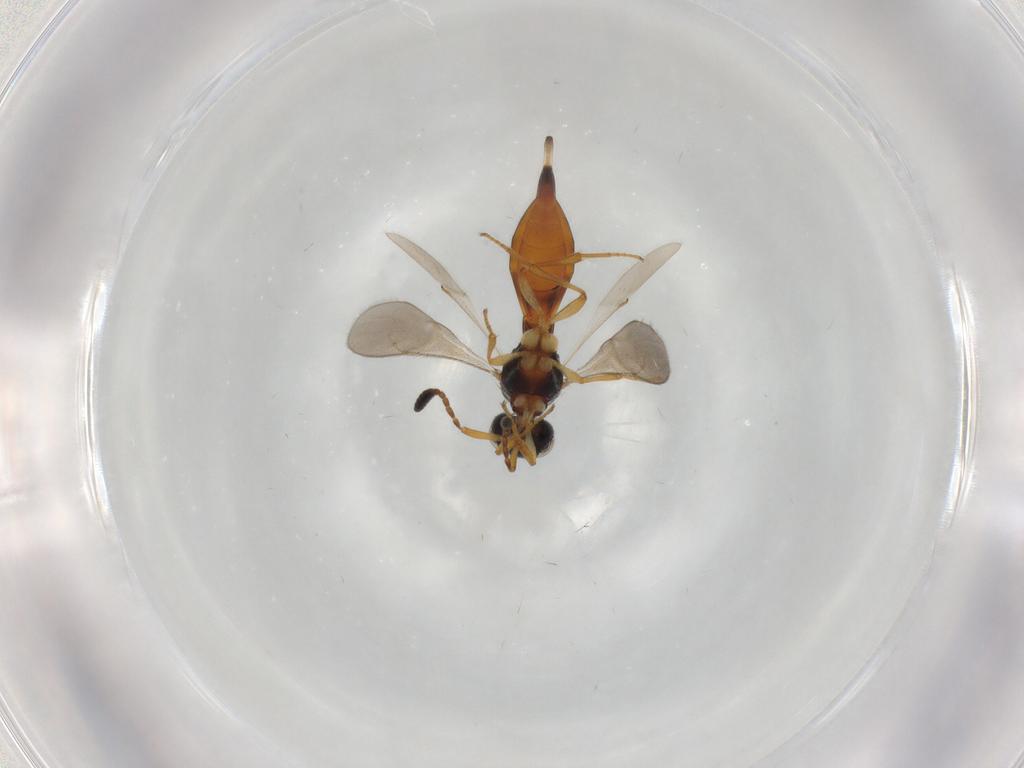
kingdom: Animalia
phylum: Arthropoda
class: Insecta
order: Hymenoptera
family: Scelionidae
